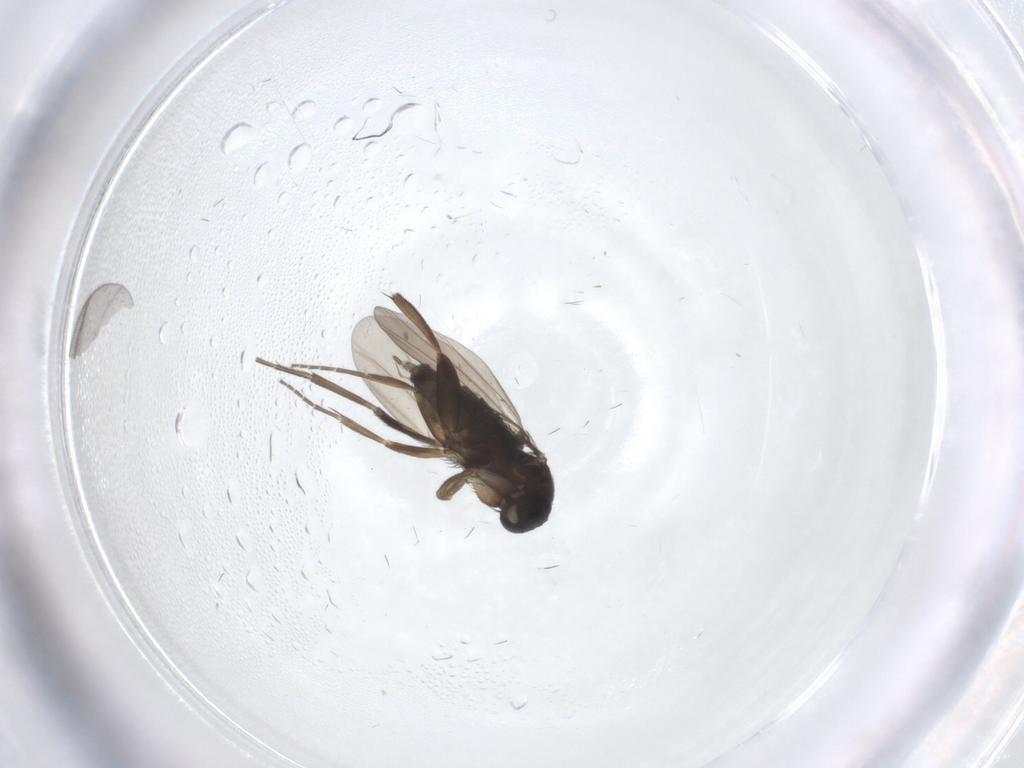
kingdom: Animalia
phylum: Arthropoda
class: Insecta
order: Diptera
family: Phoridae
